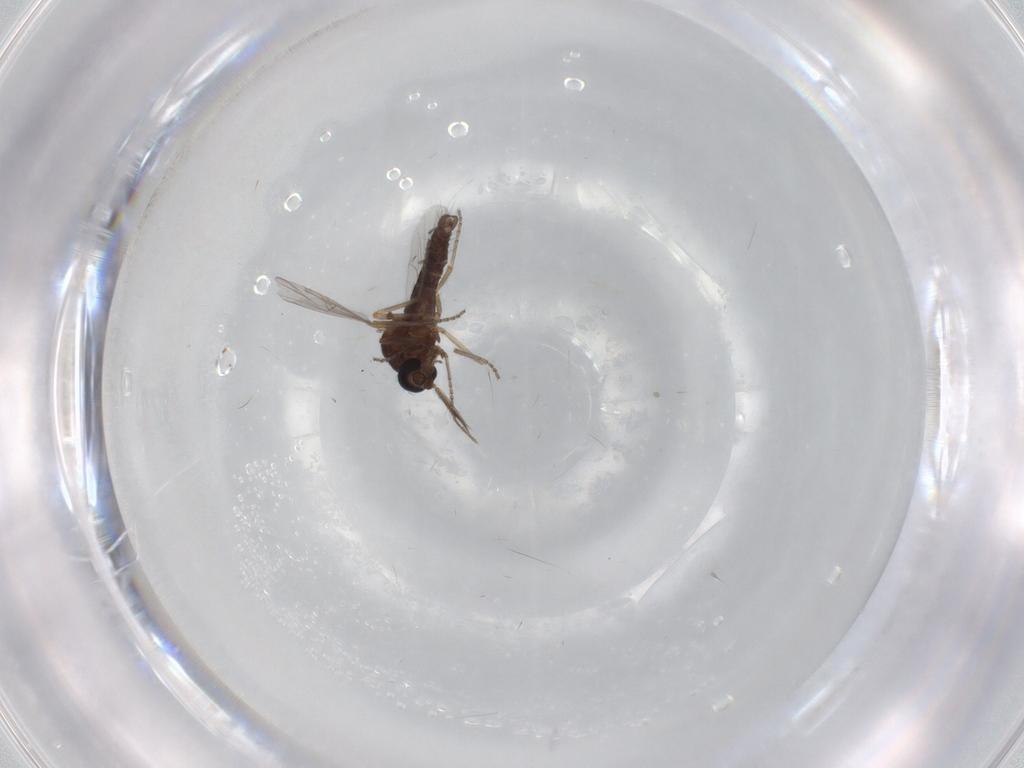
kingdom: Animalia
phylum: Arthropoda
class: Insecta
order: Diptera
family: Ceratopogonidae
